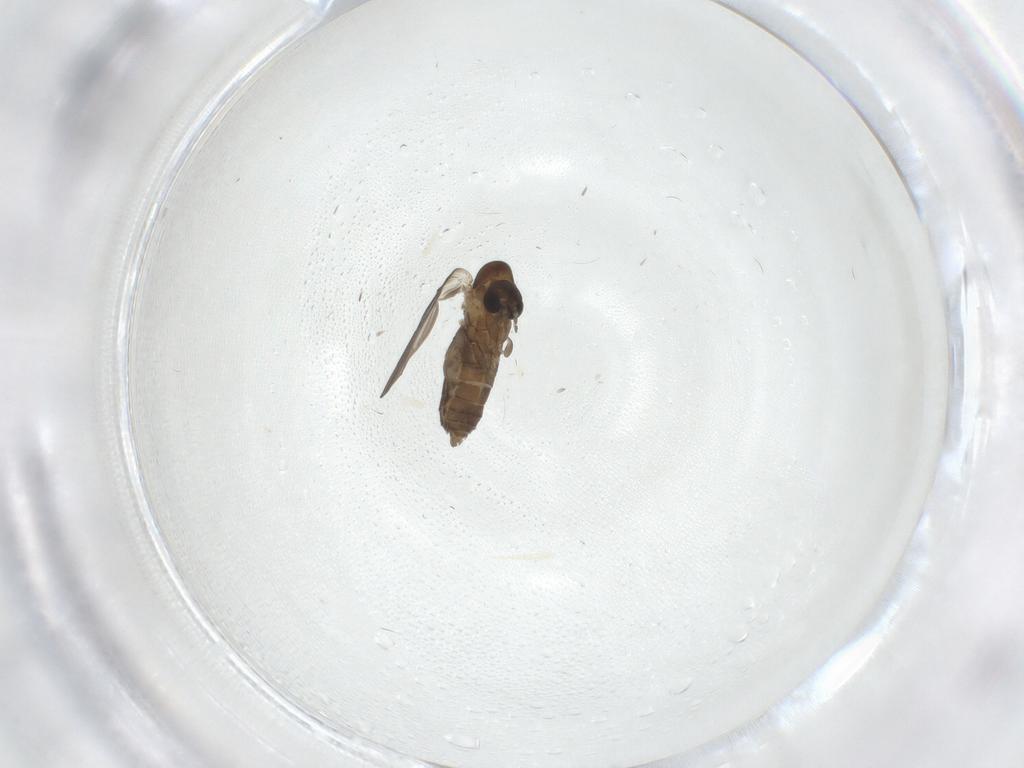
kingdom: Animalia
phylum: Arthropoda
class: Insecta
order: Diptera
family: Psychodidae
